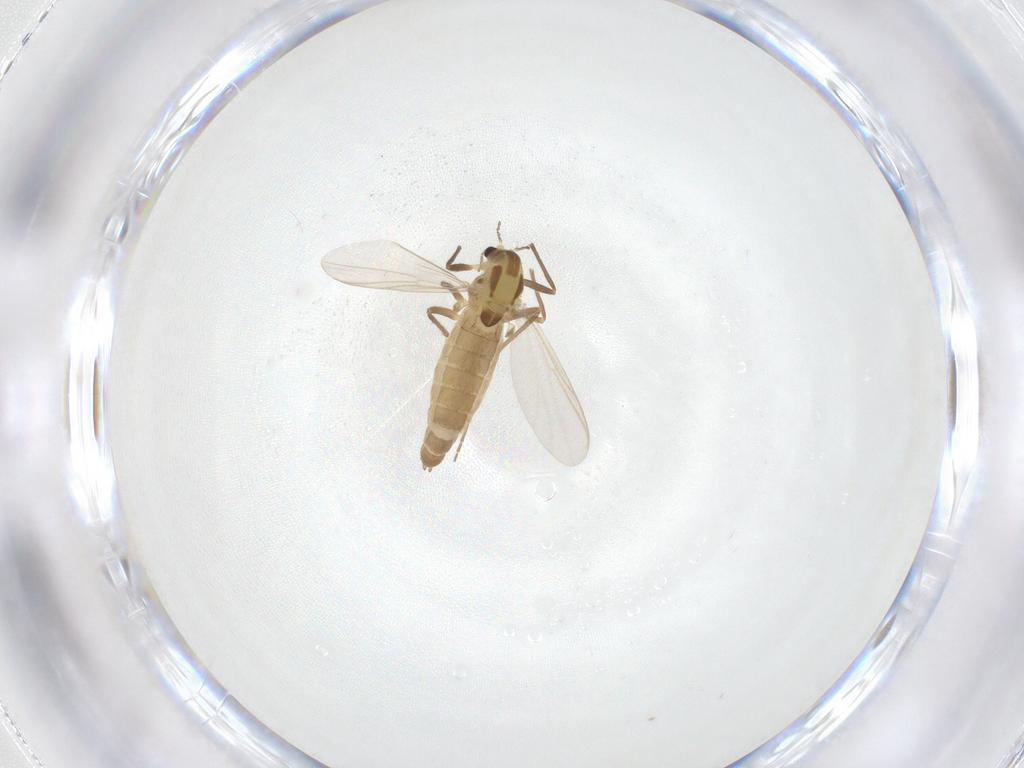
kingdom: Animalia
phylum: Arthropoda
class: Insecta
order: Diptera
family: Chironomidae
